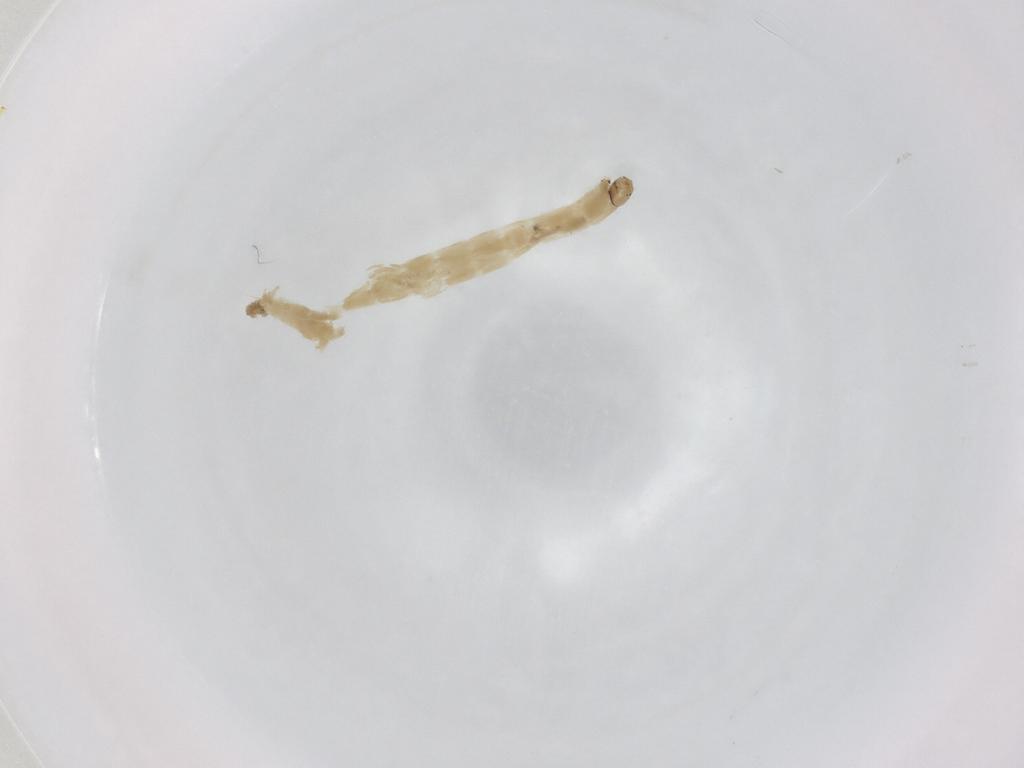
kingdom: Animalia
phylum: Arthropoda
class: Insecta
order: Diptera
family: Chironomidae
